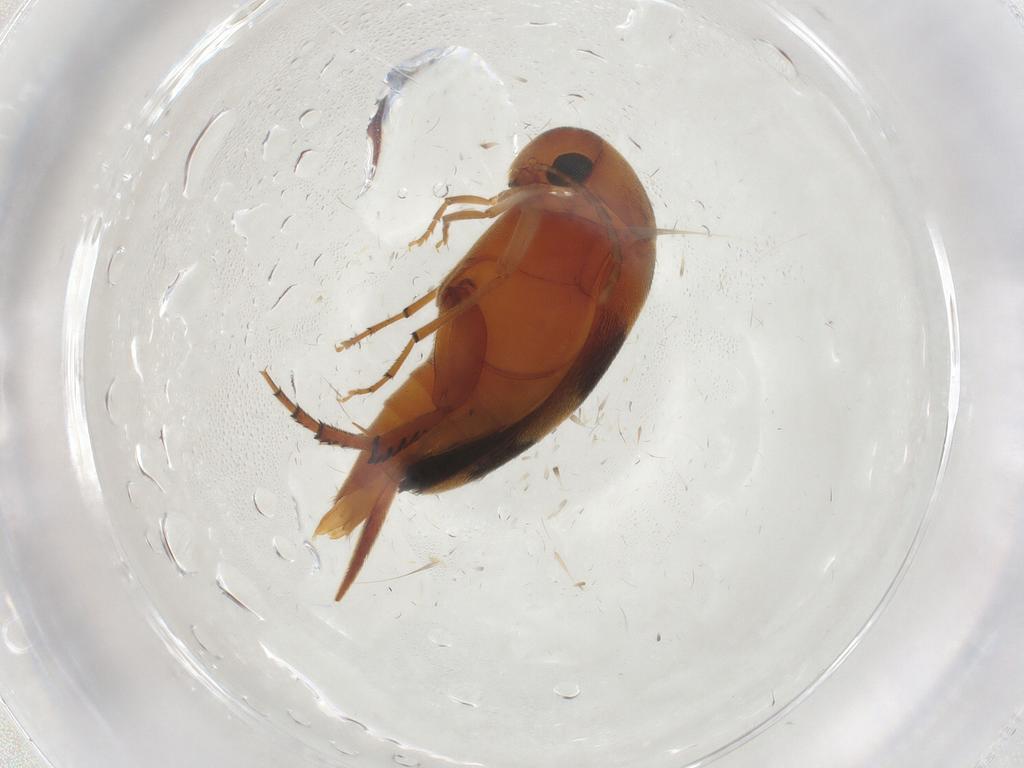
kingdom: Animalia
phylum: Arthropoda
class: Insecta
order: Coleoptera
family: Chrysomelidae
